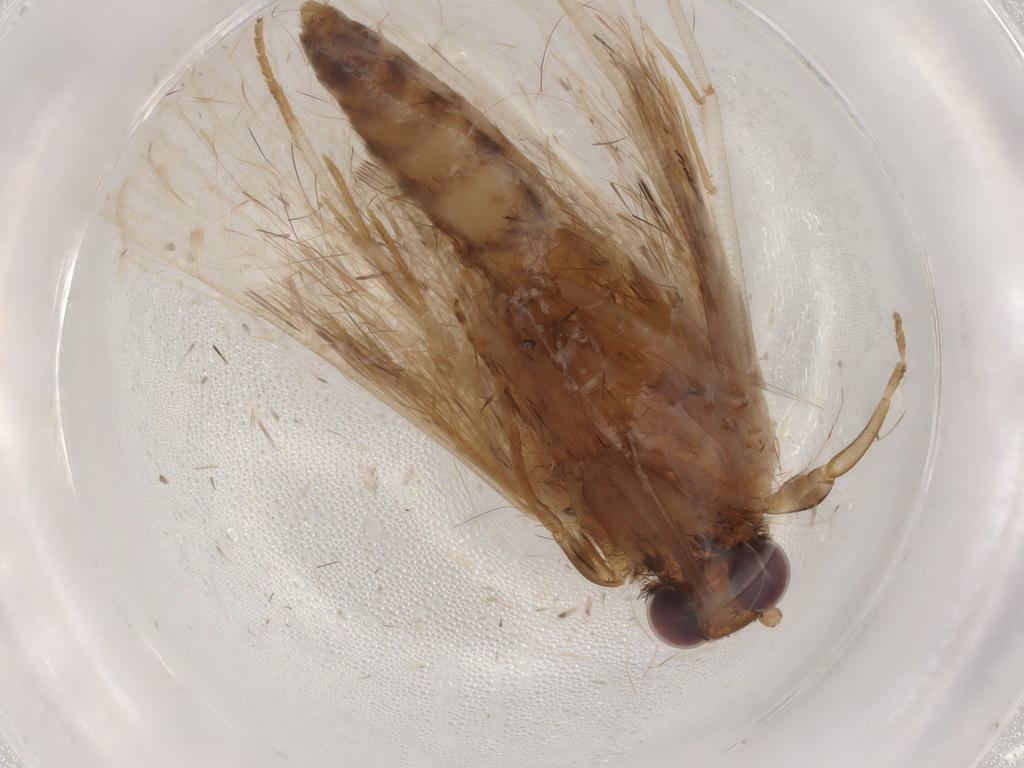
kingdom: Animalia
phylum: Arthropoda
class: Insecta
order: Lepidoptera
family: Erebidae
